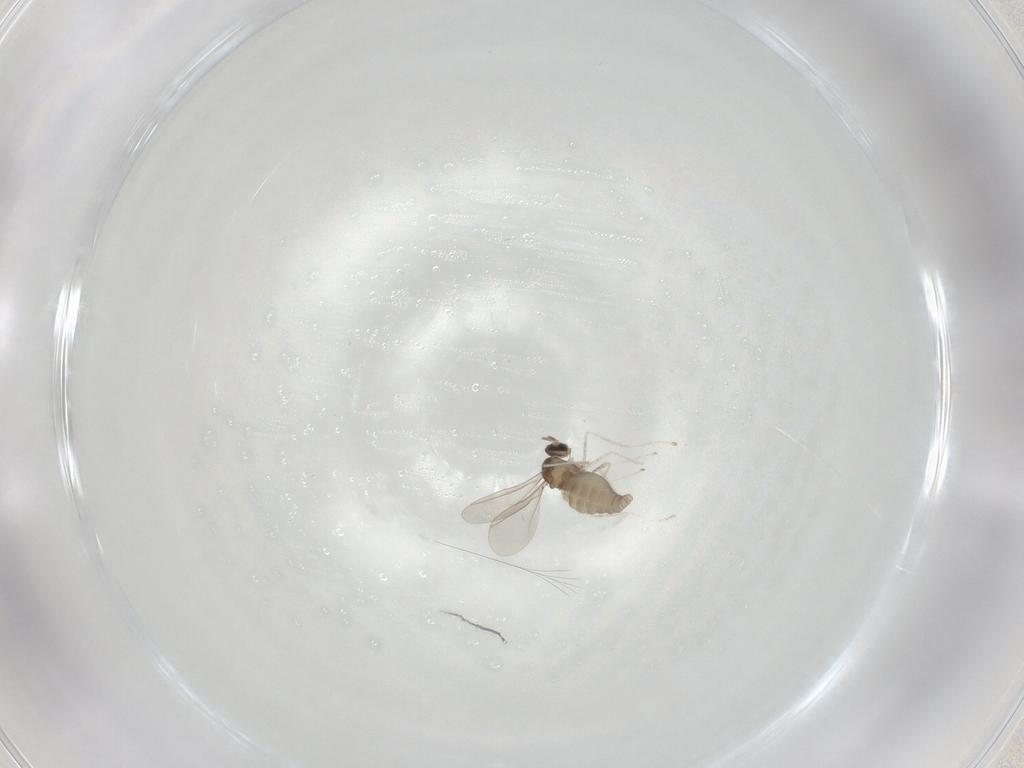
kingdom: Animalia
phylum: Arthropoda
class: Insecta
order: Diptera
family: Cecidomyiidae
